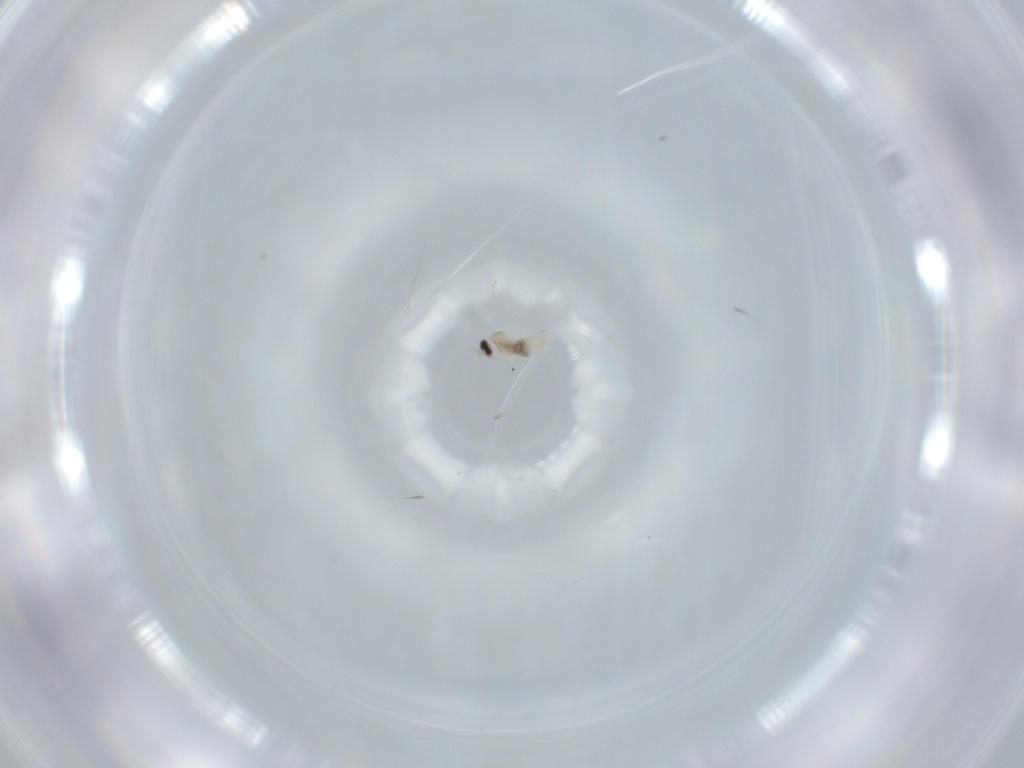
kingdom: Animalia
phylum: Arthropoda
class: Insecta
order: Diptera
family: Cecidomyiidae
